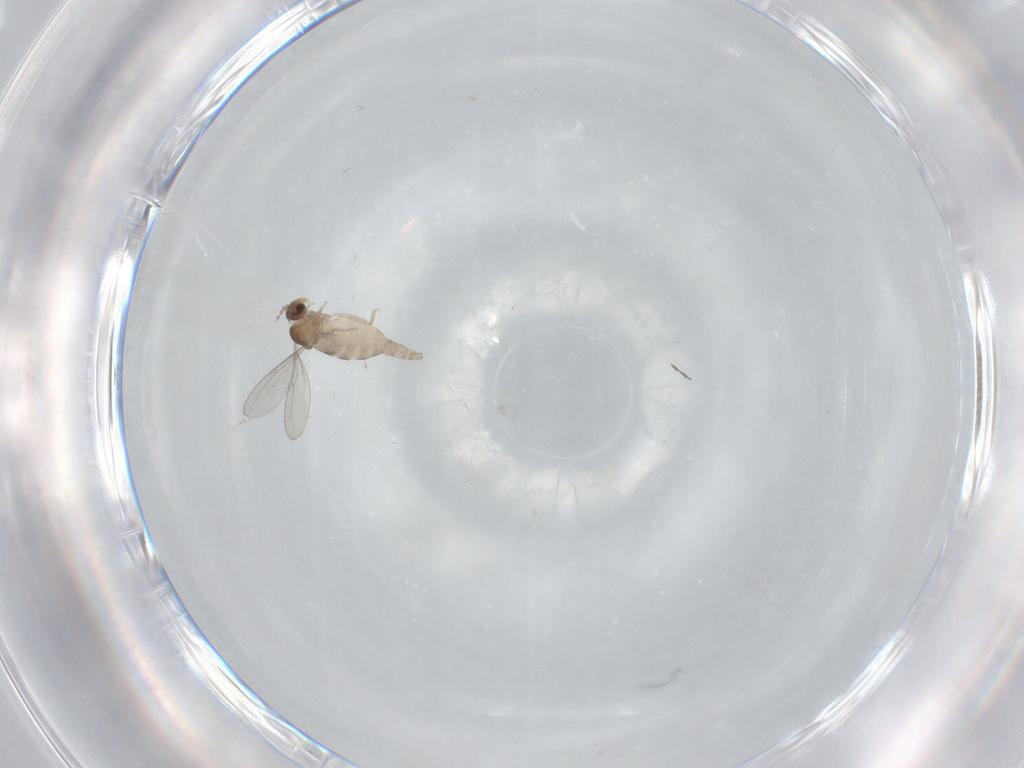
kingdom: Animalia
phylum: Arthropoda
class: Insecta
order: Diptera
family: Cecidomyiidae
